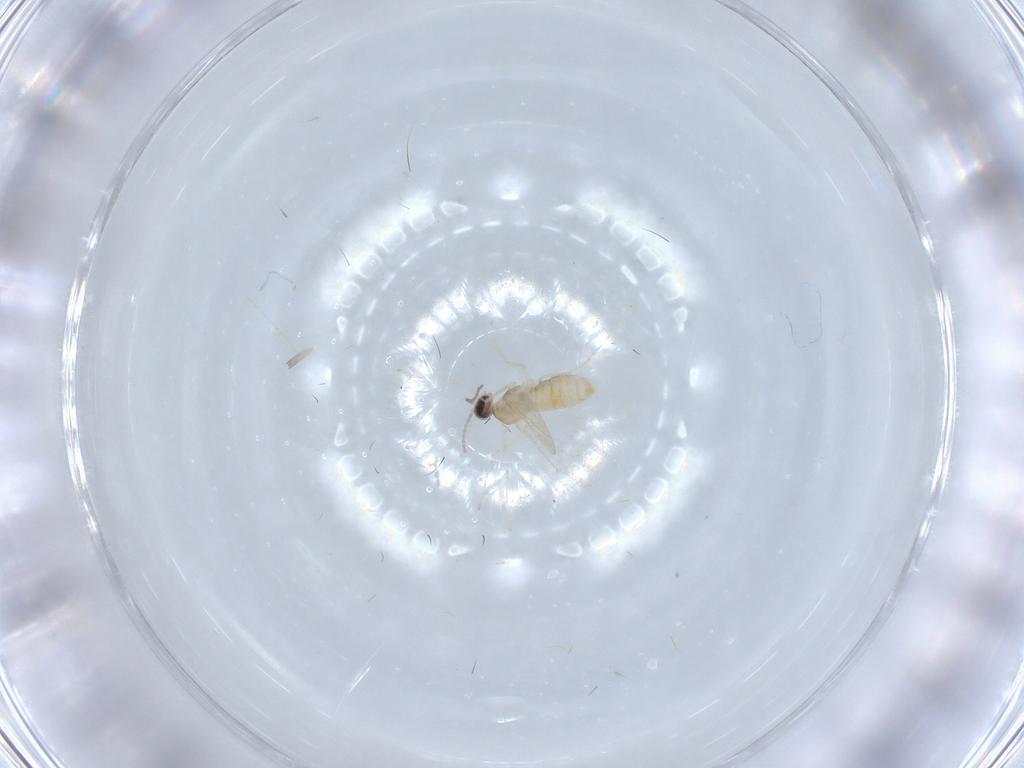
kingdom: Animalia
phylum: Arthropoda
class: Insecta
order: Diptera
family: Cecidomyiidae
